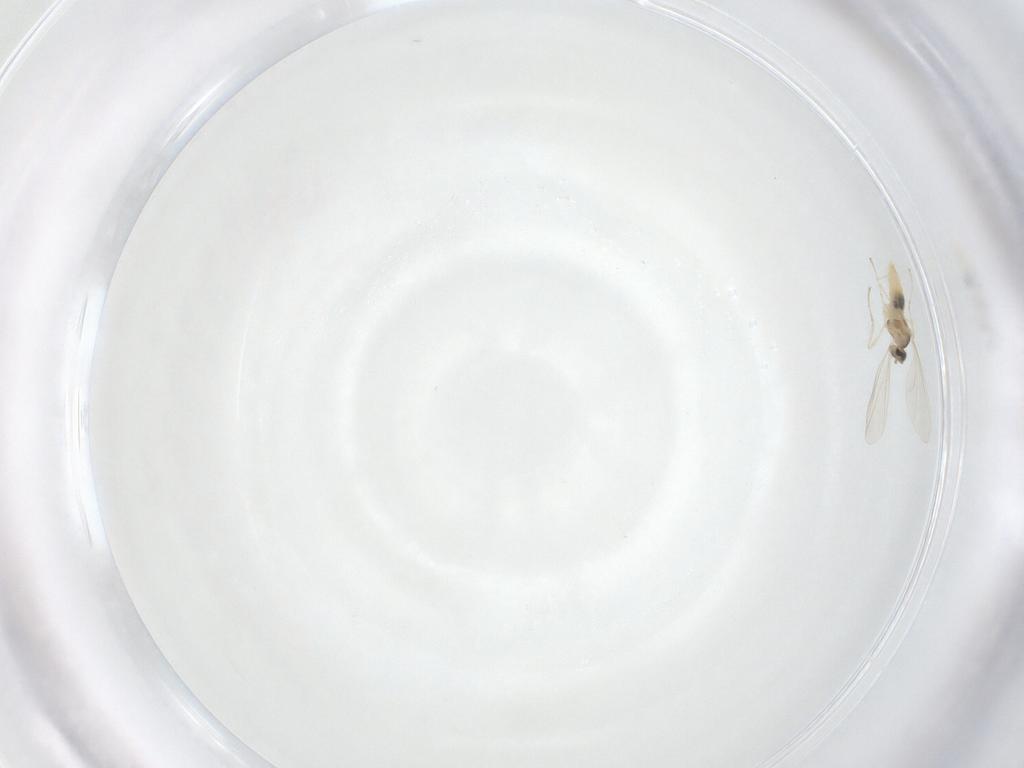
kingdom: Animalia
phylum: Arthropoda
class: Insecta
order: Diptera
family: Cecidomyiidae
